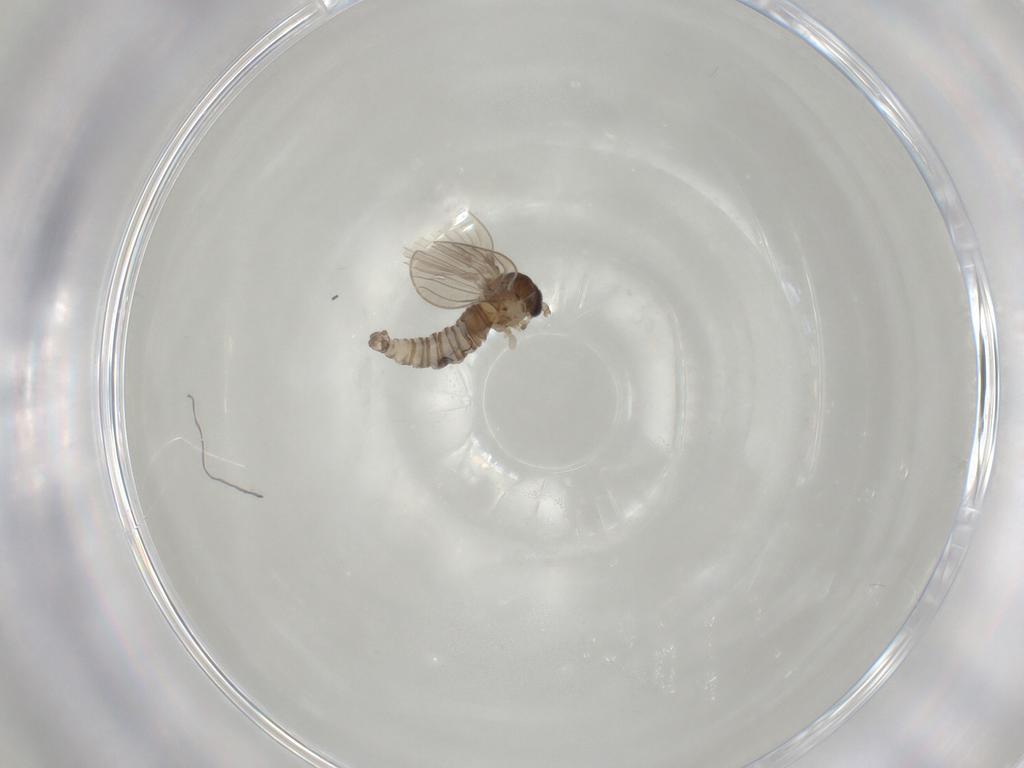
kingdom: Animalia
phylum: Arthropoda
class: Insecta
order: Diptera
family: Psychodidae
